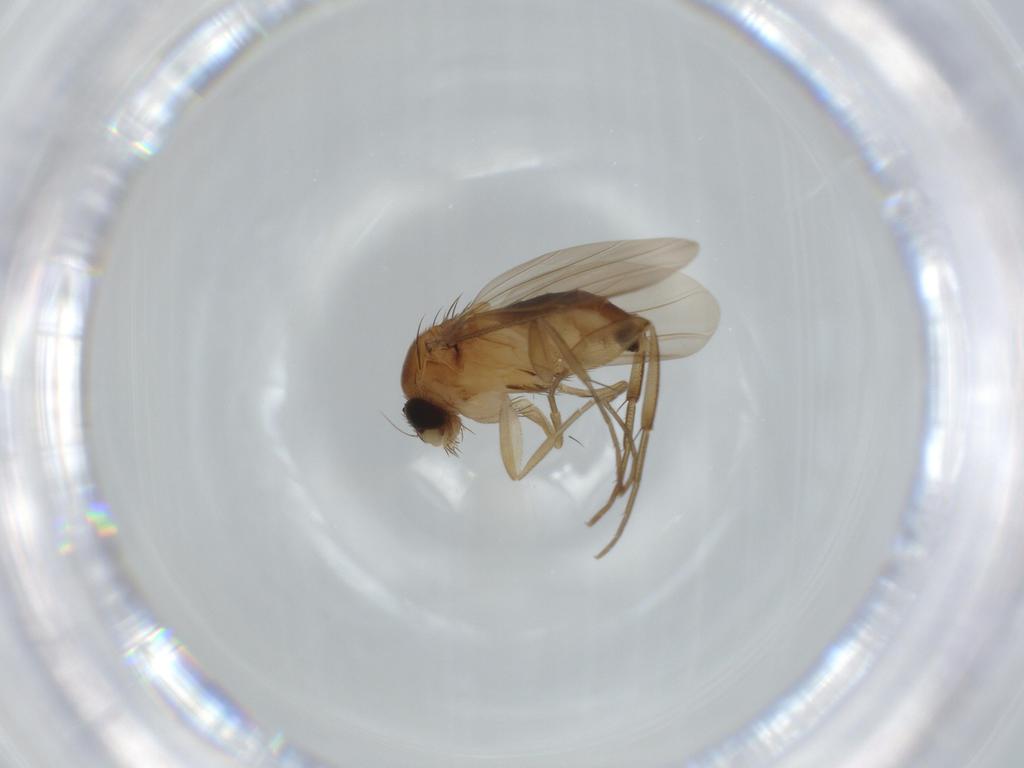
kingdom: Animalia
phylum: Arthropoda
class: Insecta
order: Diptera
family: Phoridae
